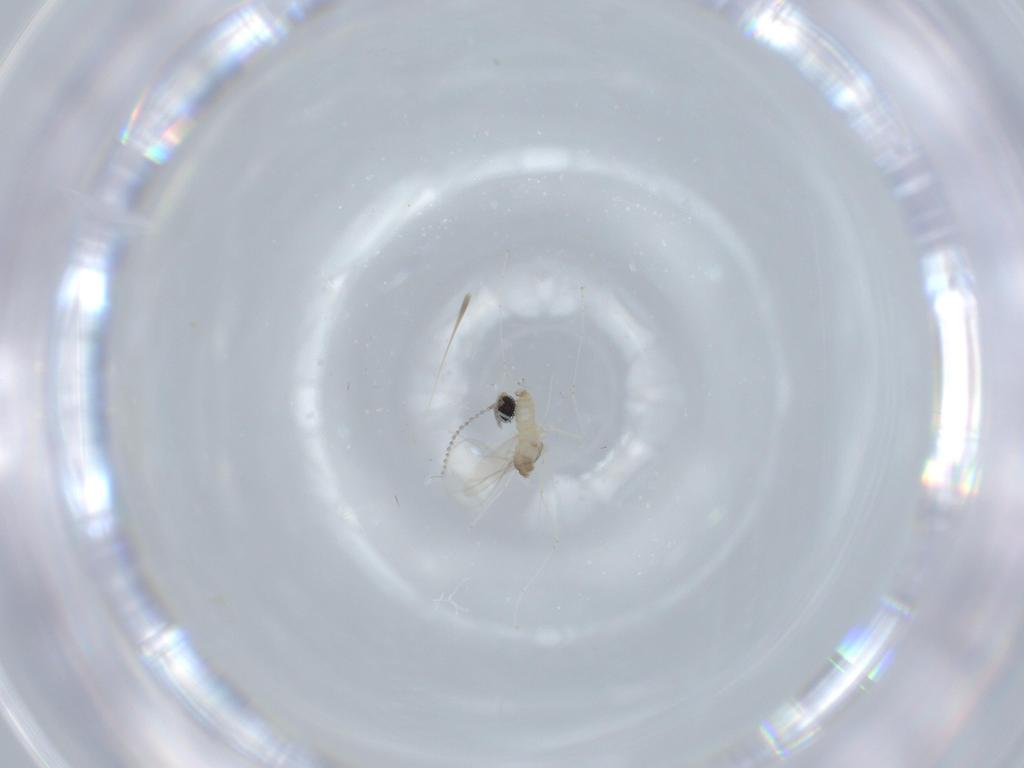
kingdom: Animalia
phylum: Arthropoda
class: Insecta
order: Diptera
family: Cecidomyiidae
